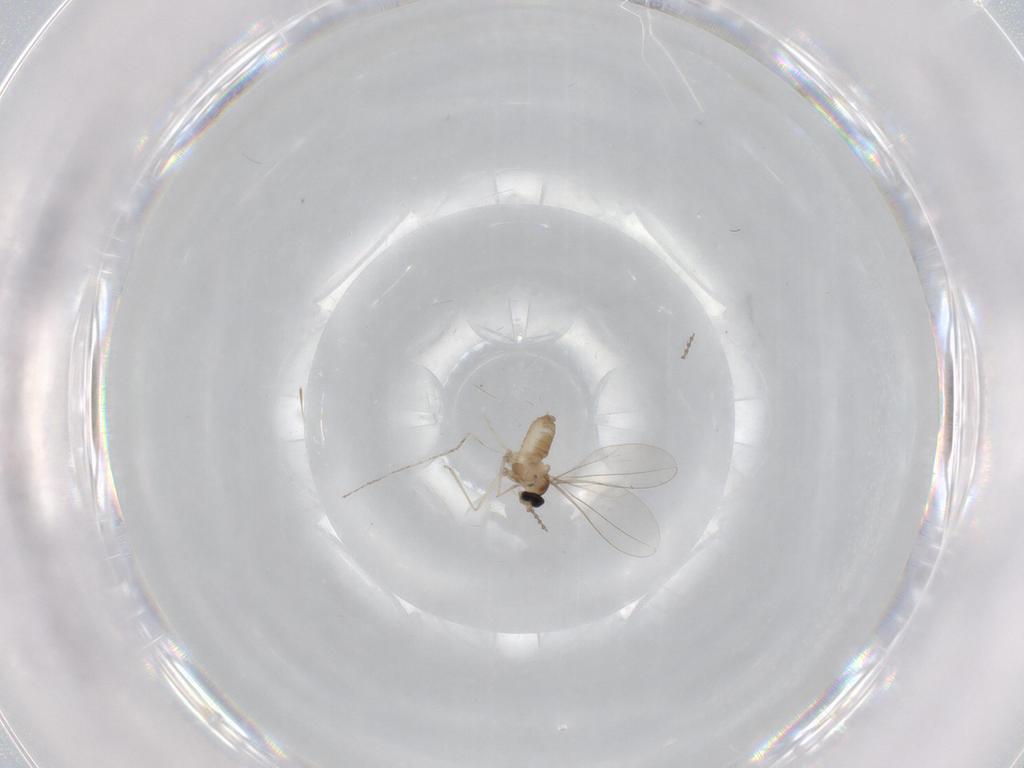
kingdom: Animalia
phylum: Arthropoda
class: Insecta
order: Diptera
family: Cecidomyiidae
